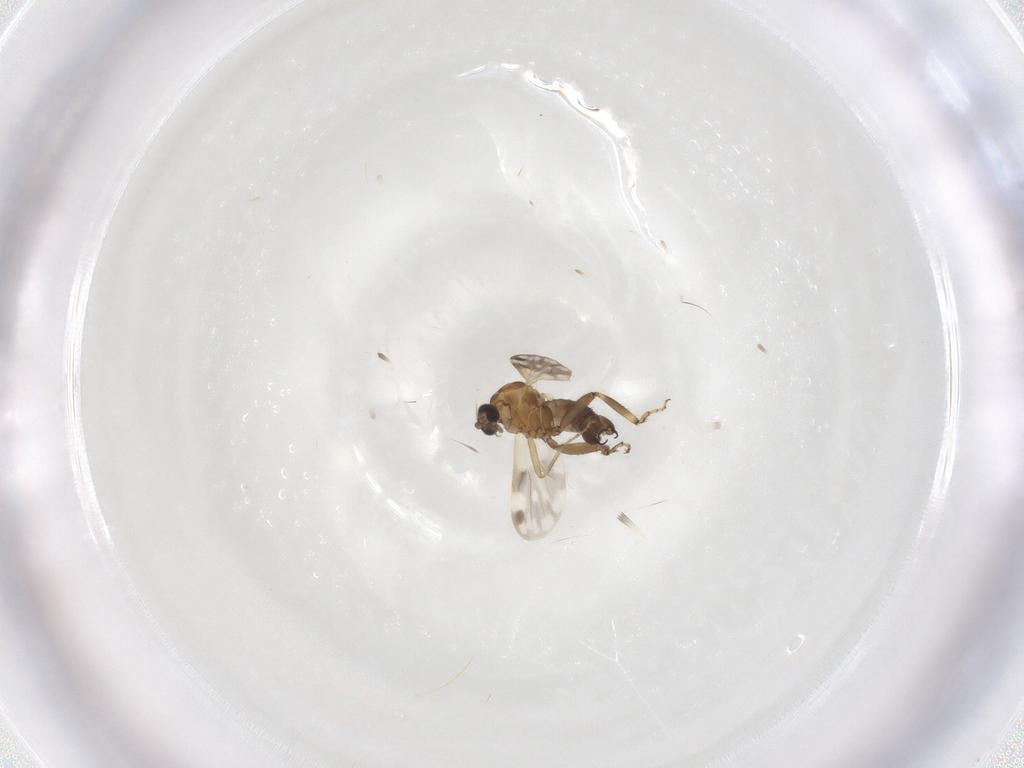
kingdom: Animalia
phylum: Arthropoda
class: Insecta
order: Diptera
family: Ceratopogonidae
